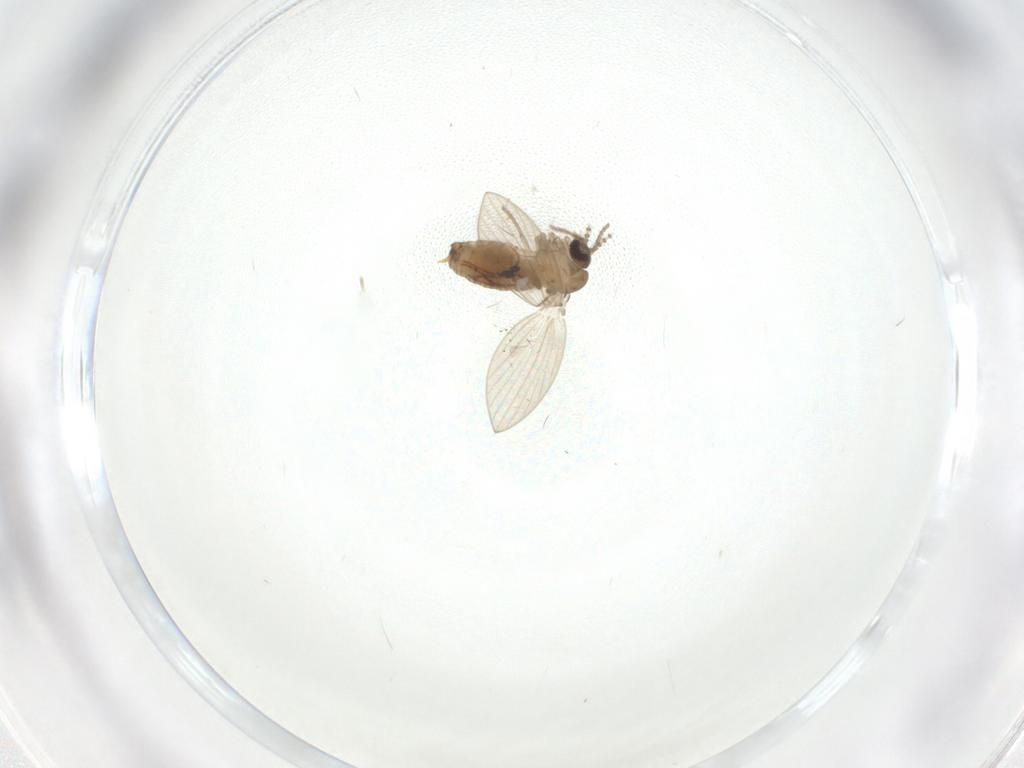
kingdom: Animalia
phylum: Arthropoda
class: Insecta
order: Diptera
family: Psychodidae
